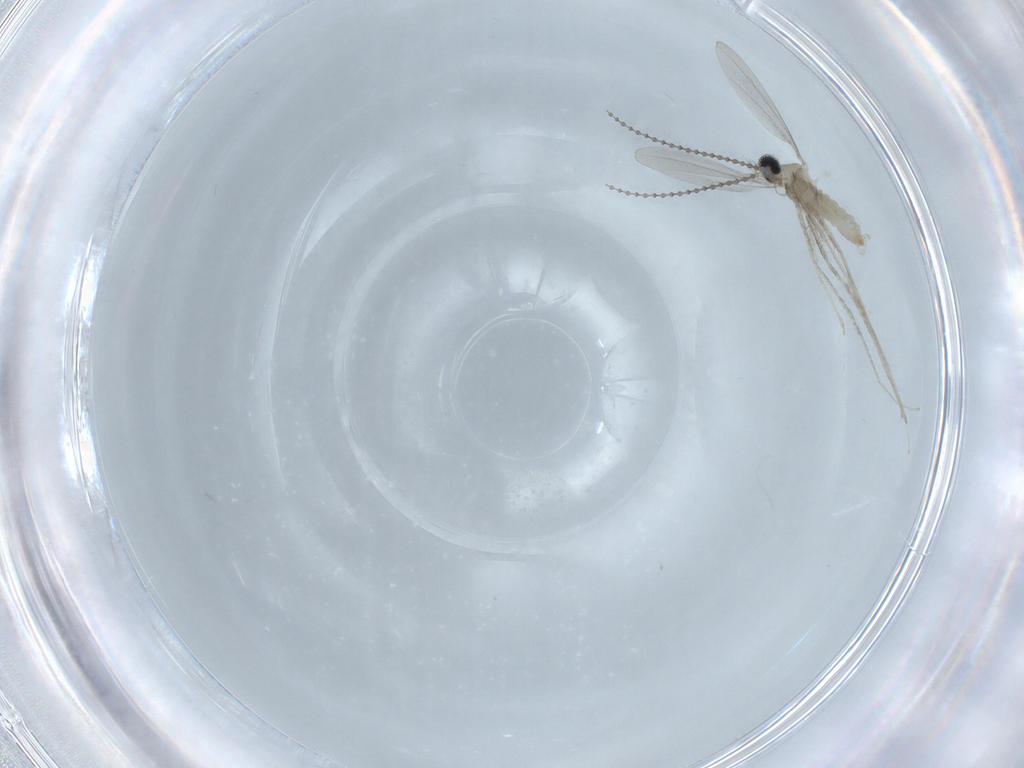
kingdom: Animalia
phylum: Arthropoda
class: Insecta
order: Diptera
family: Cecidomyiidae
